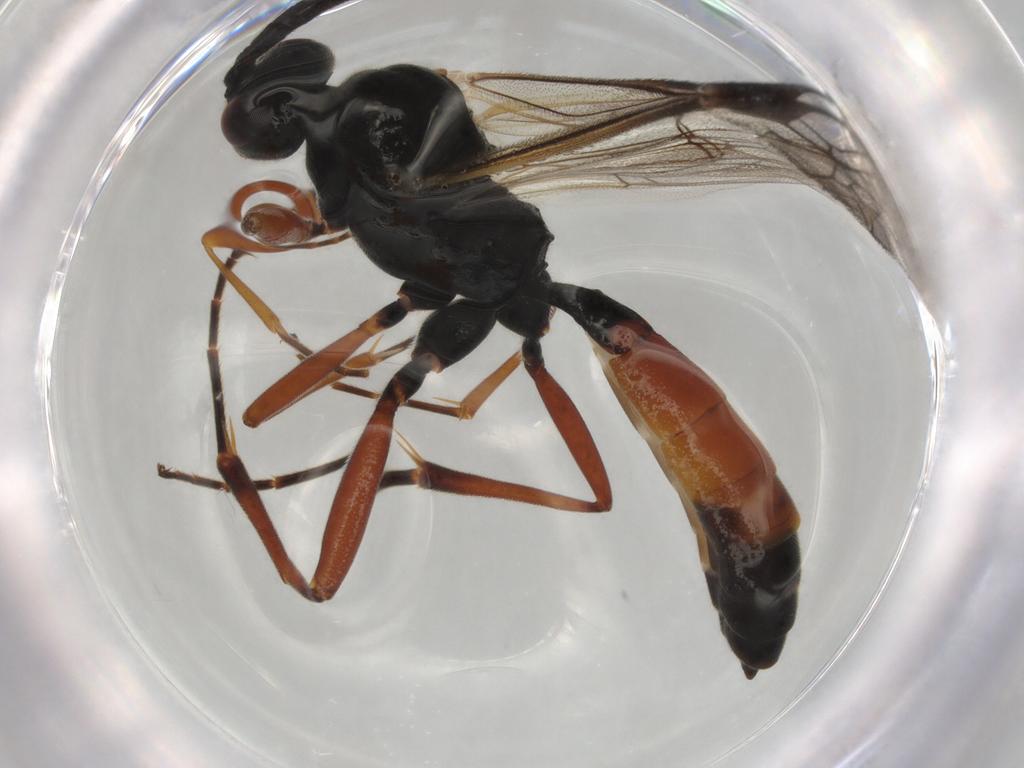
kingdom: Animalia
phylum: Arthropoda
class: Insecta
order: Hymenoptera
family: Formicidae
